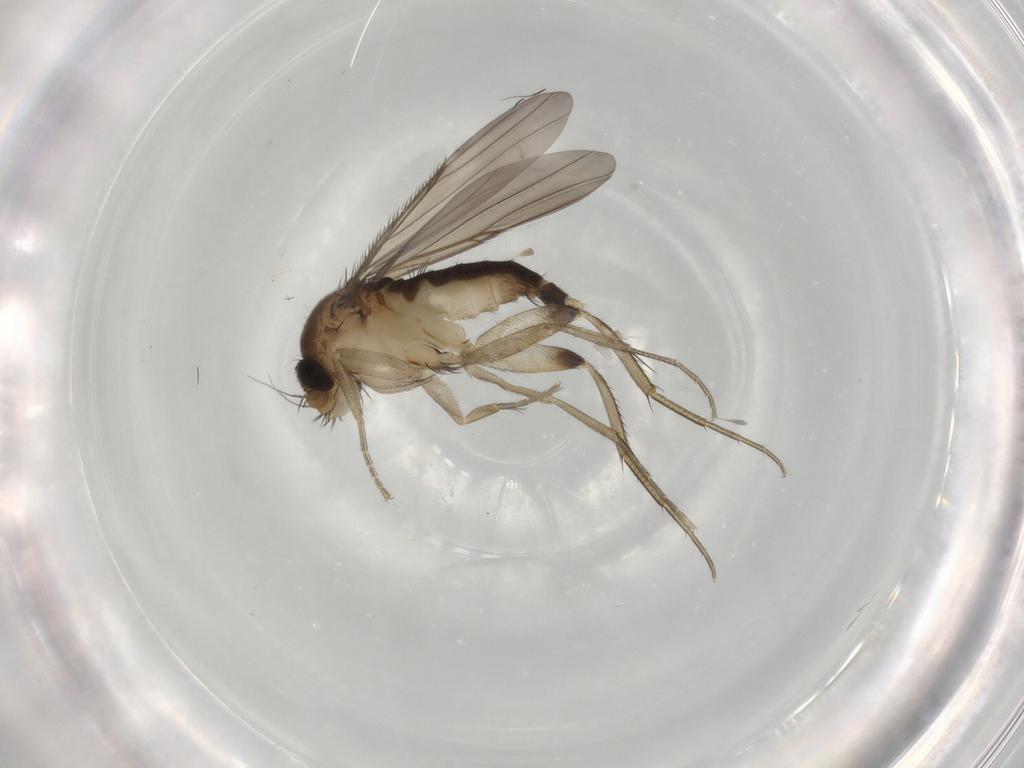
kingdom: Animalia
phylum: Arthropoda
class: Insecta
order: Diptera
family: Phoridae
